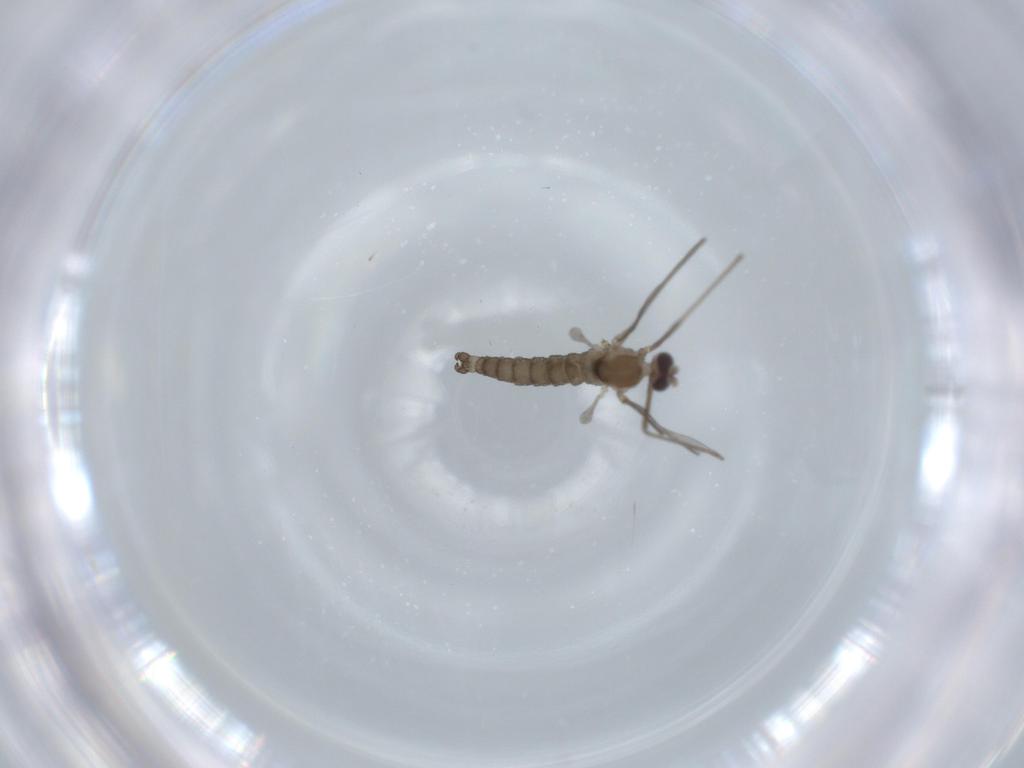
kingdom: Animalia
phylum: Arthropoda
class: Insecta
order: Diptera
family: Cecidomyiidae
